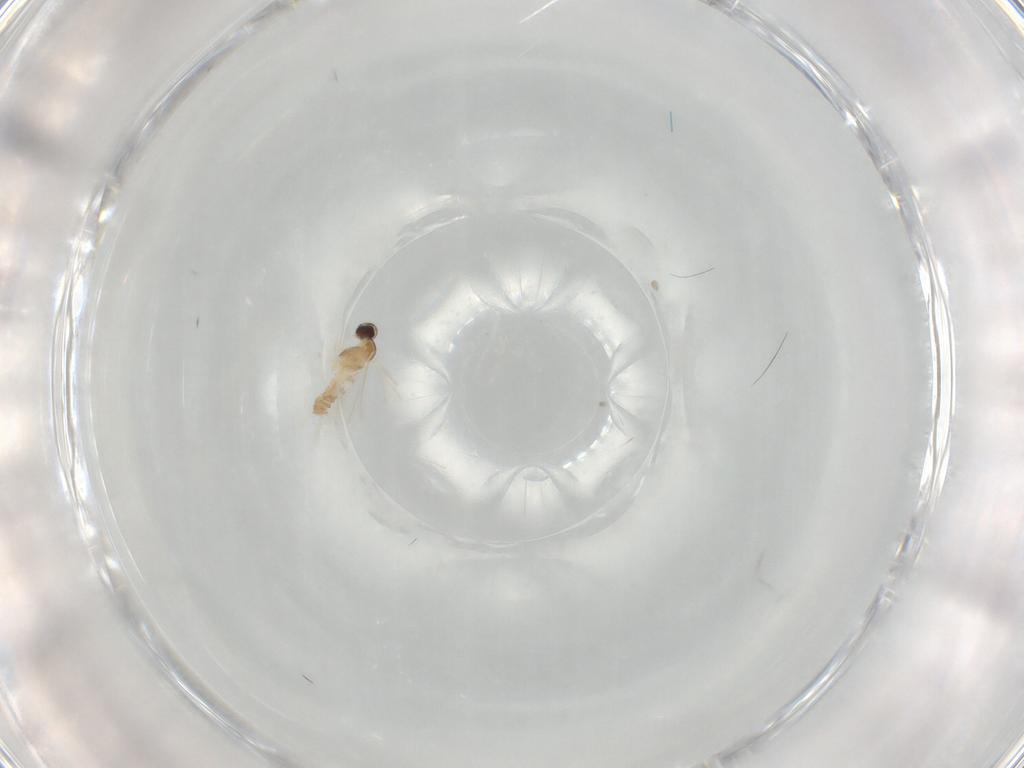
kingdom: Animalia
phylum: Arthropoda
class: Insecta
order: Diptera
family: Cecidomyiidae
